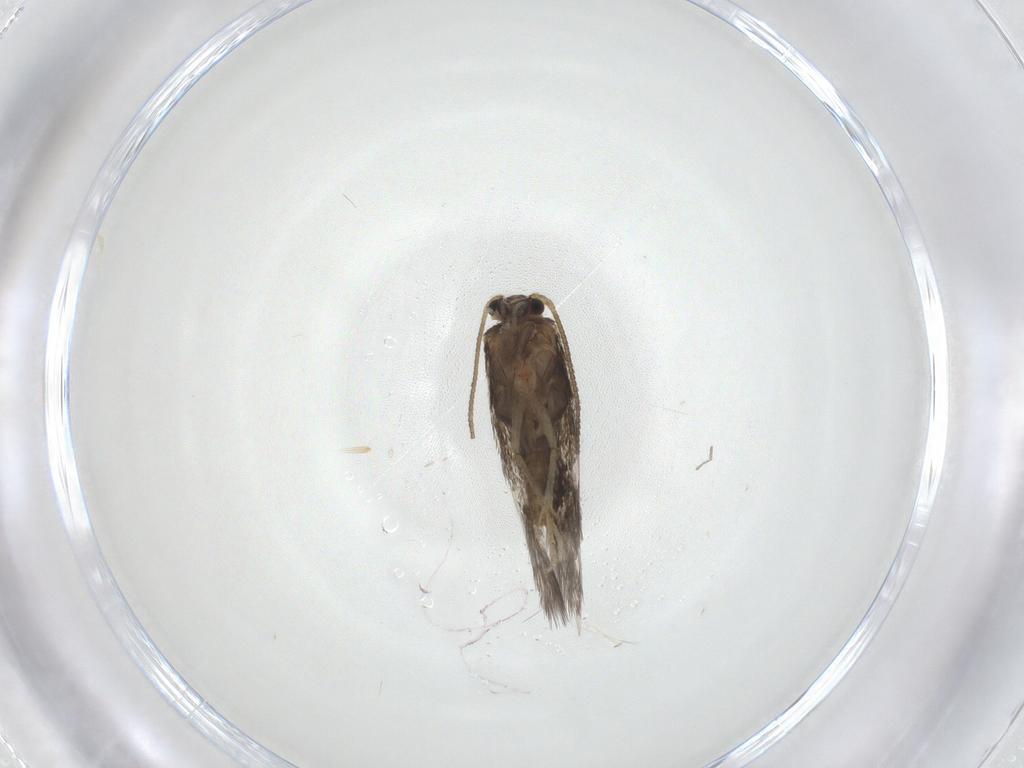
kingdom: Animalia
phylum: Arthropoda
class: Insecta
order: Lepidoptera
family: Nepticulidae
